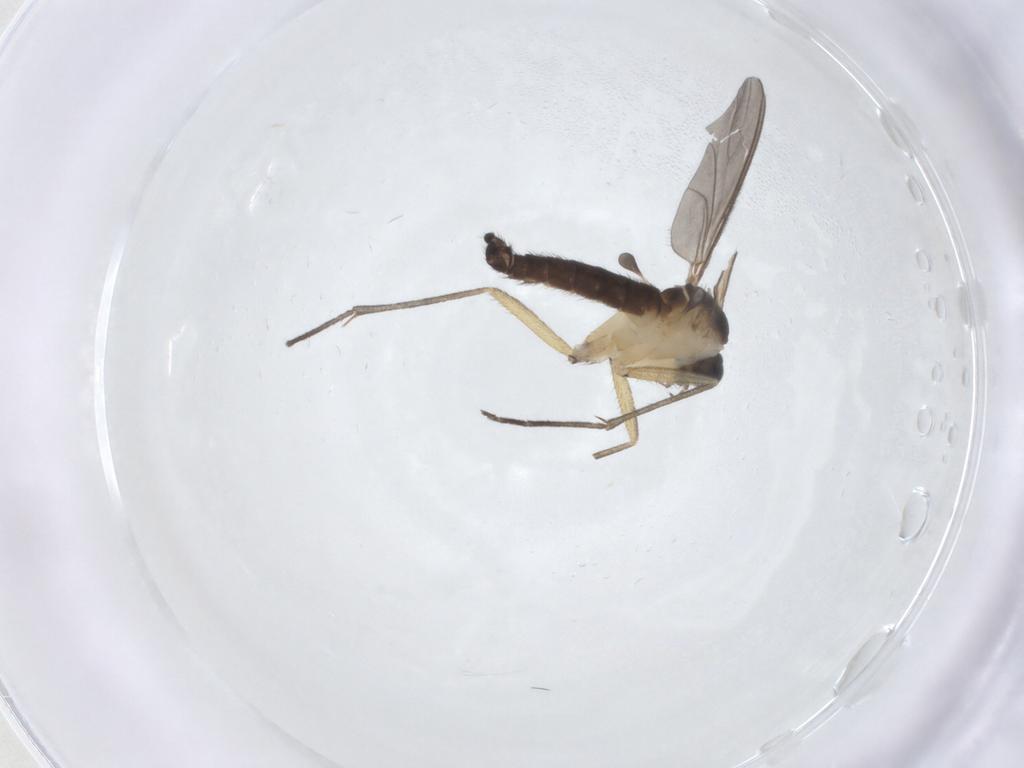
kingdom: Animalia
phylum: Arthropoda
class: Insecta
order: Diptera
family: Sciaridae
